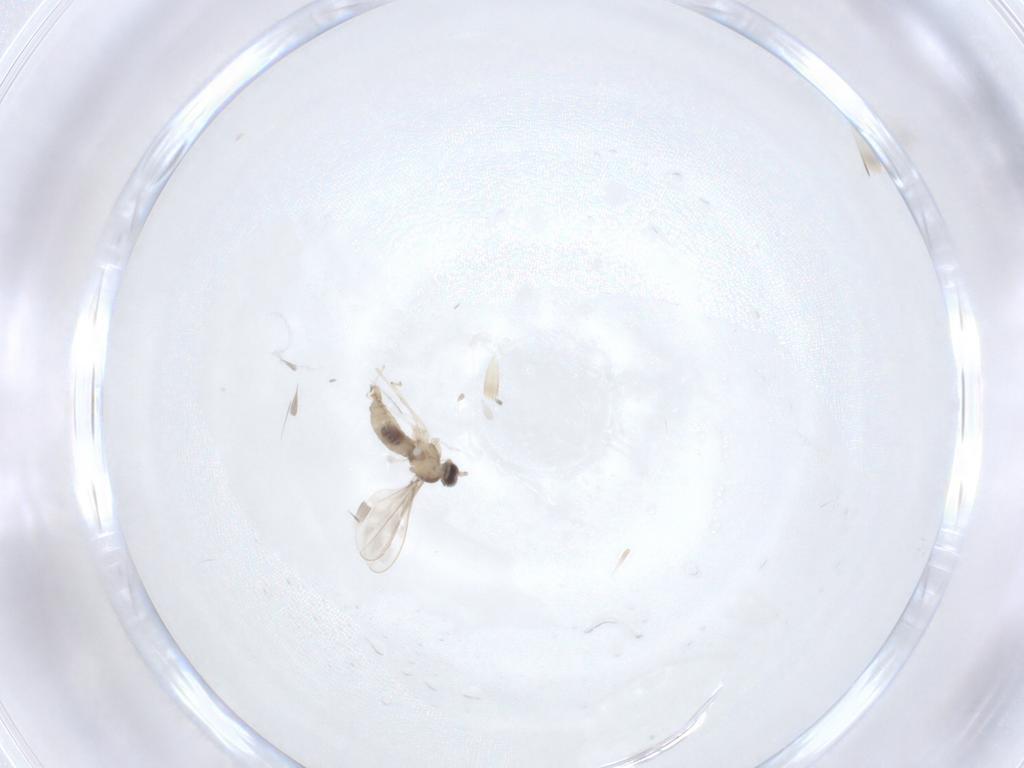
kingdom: Animalia
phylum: Arthropoda
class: Insecta
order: Diptera
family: Cecidomyiidae
